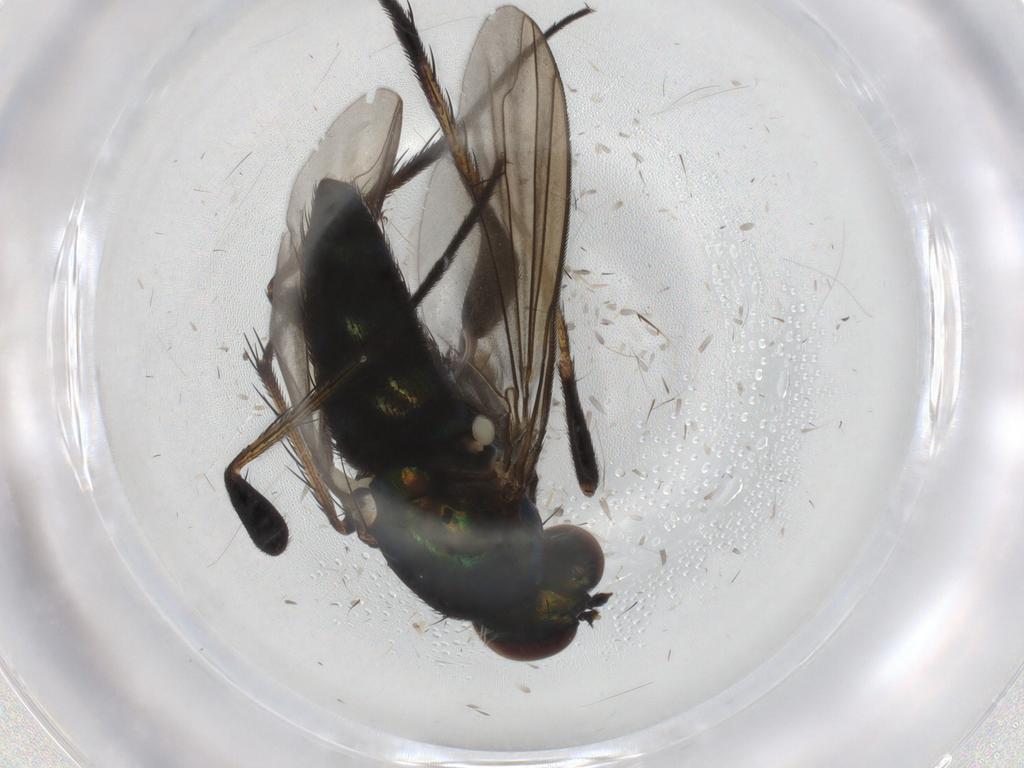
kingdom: Animalia
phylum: Arthropoda
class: Insecta
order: Diptera
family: Dolichopodidae
